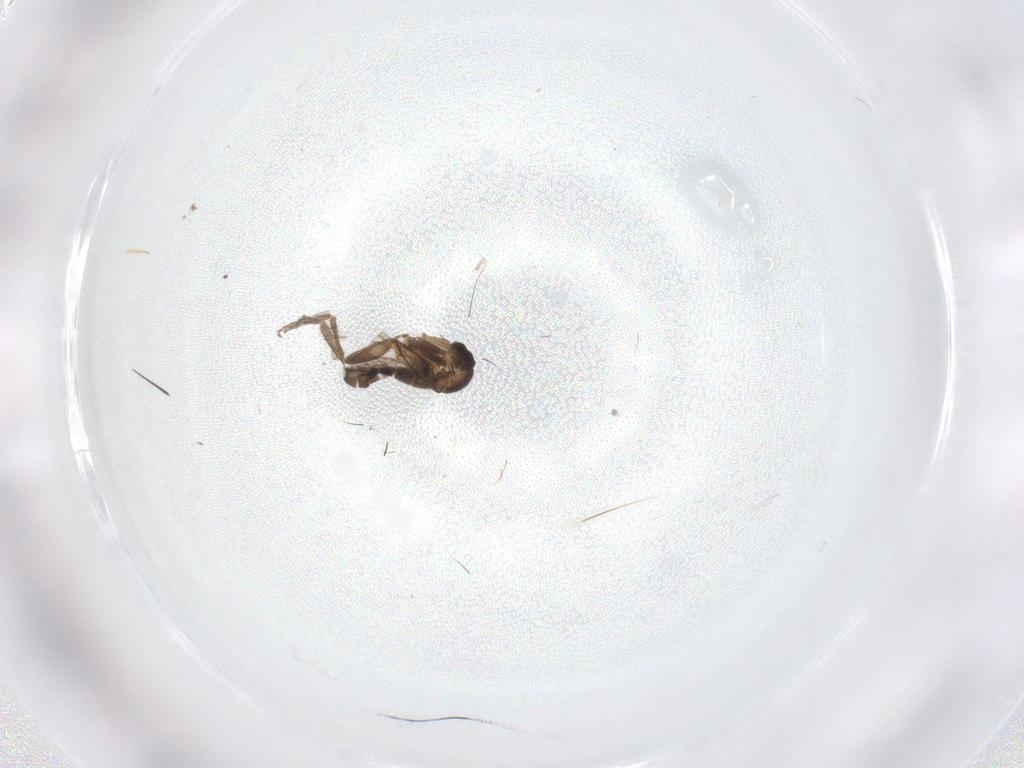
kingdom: Animalia
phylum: Arthropoda
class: Insecta
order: Diptera
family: Phoridae
